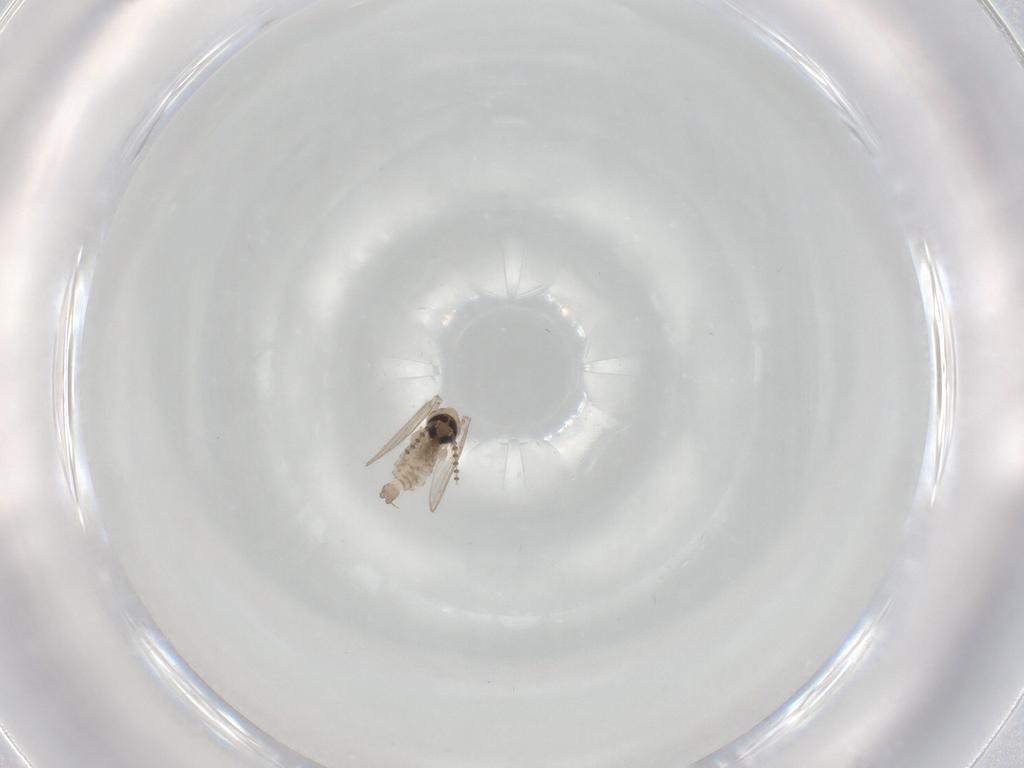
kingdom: Animalia
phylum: Arthropoda
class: Insecta
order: Diptera
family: Psychodidae
